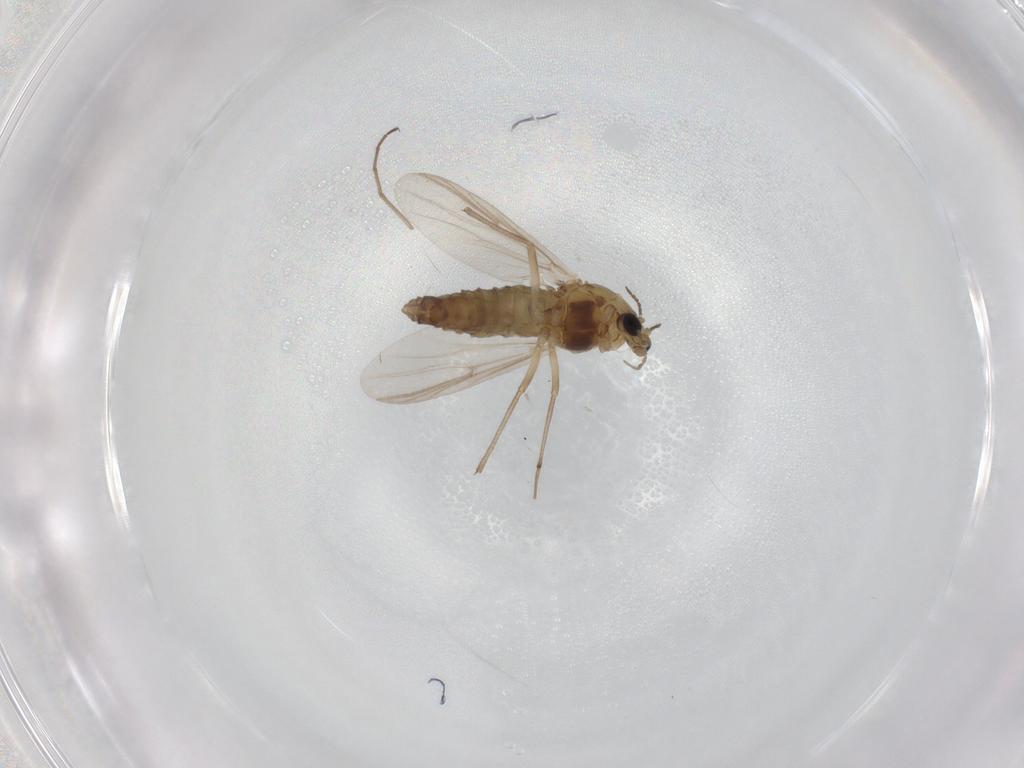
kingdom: Animalia
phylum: Arthropoda
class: Insecta
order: Diptera
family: Chironomidae
